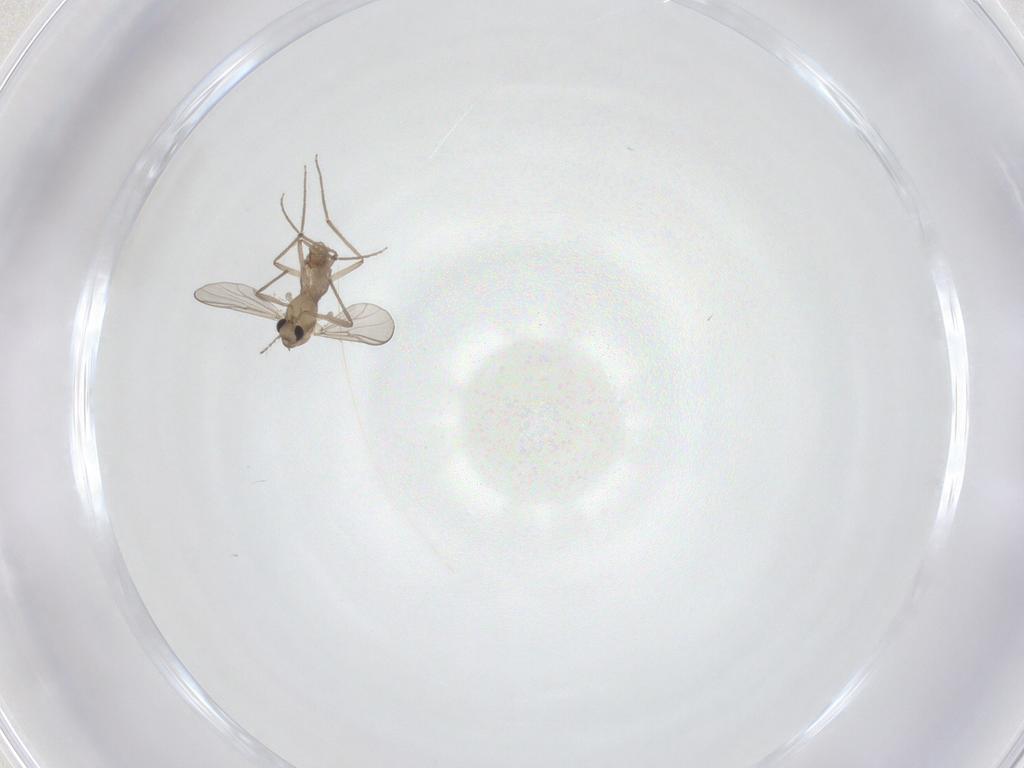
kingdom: Animalia
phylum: Arthropoda
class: Insecta
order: Diptera
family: Chironomidae
